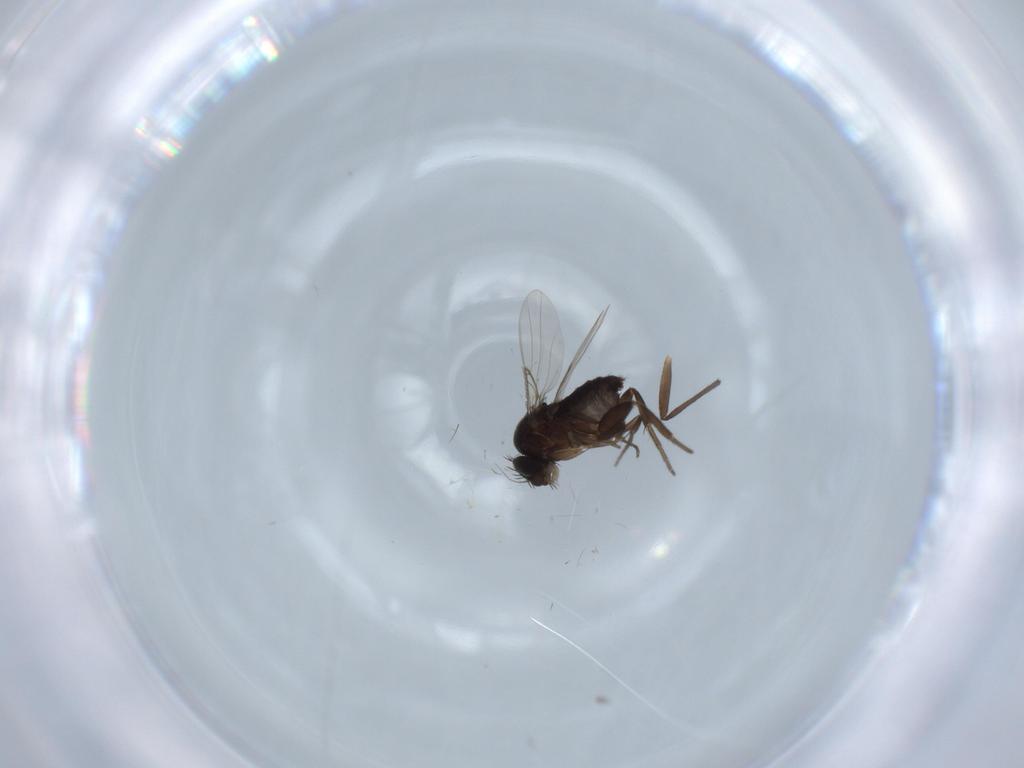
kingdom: Animalia
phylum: Arthropoda
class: Insecta
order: Diptera
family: Phoridae
